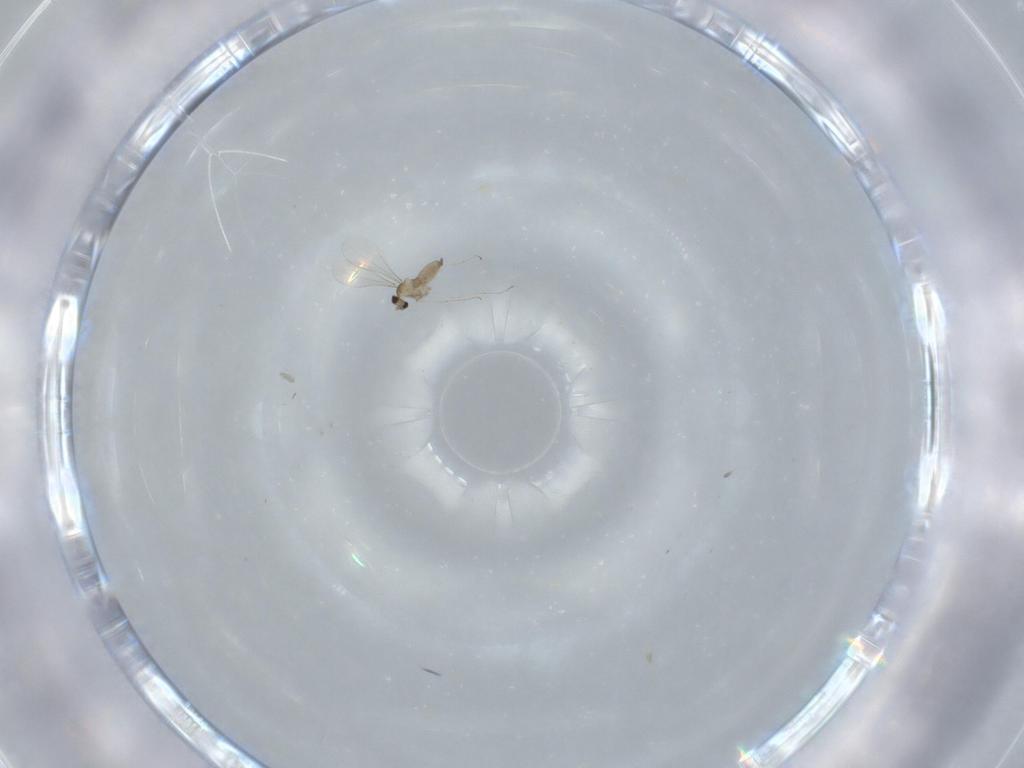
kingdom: Animalia
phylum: Arthropoda
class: Insecta
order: Diptera
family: Cecidomyiidae
